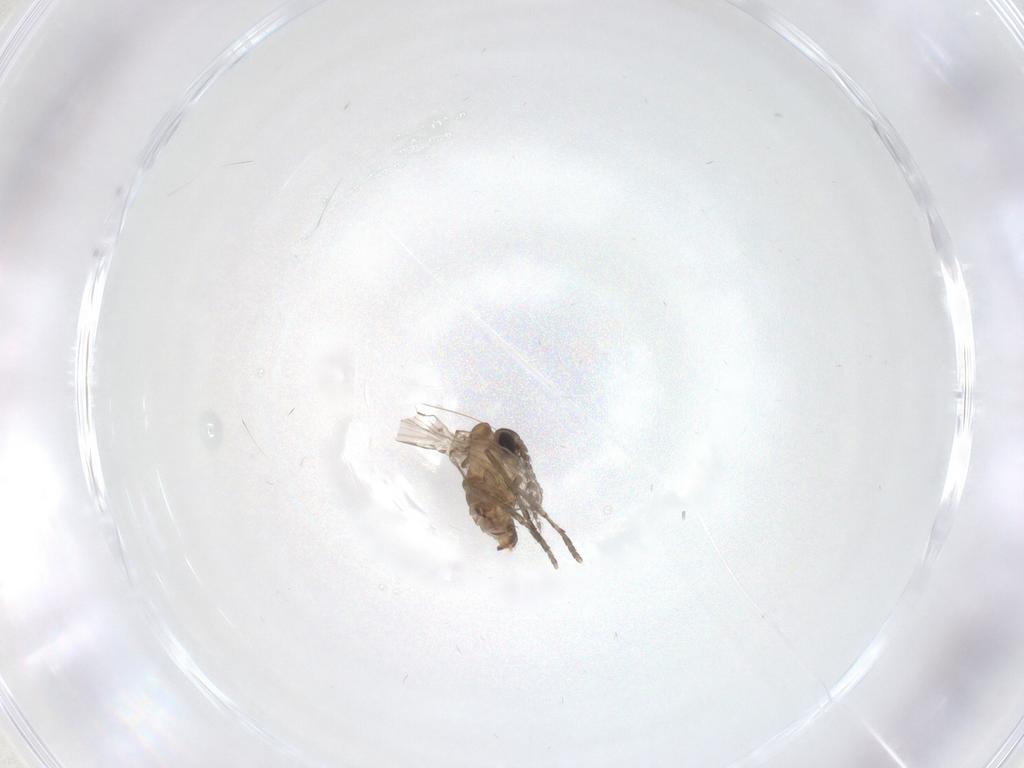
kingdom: Animalia
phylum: Arthropoda
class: Insecta
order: Diptera
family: Psychodidae
